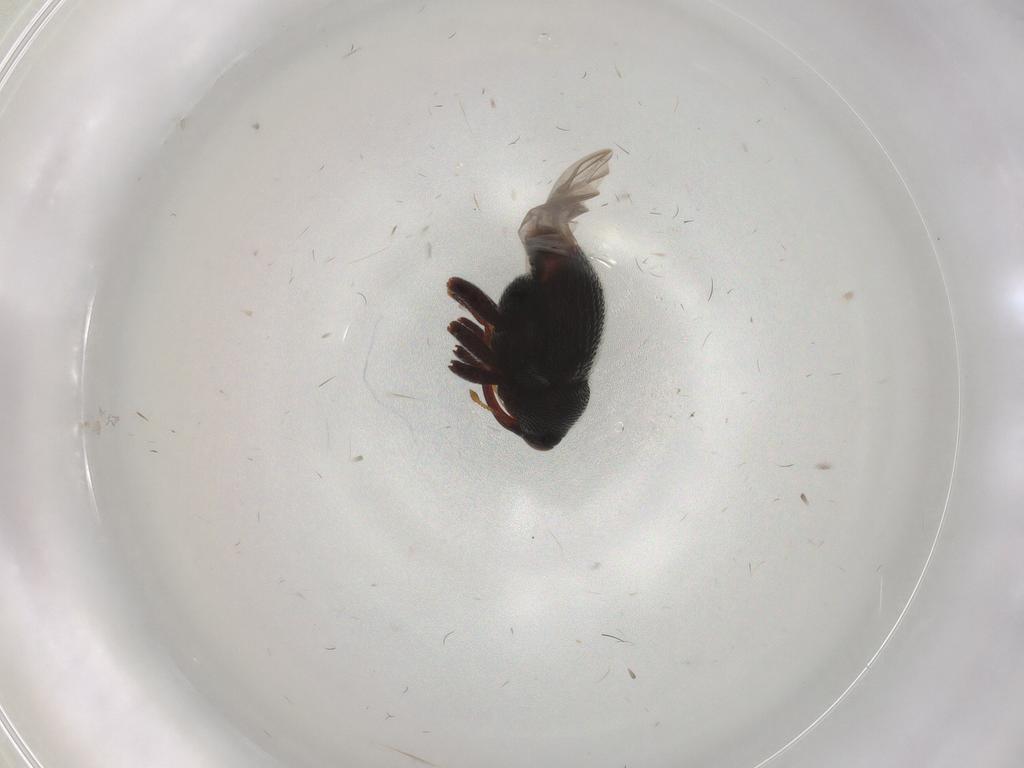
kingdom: Animalia
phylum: Arthropoda
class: Insecta
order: Coleoptera
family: Curculionidae
